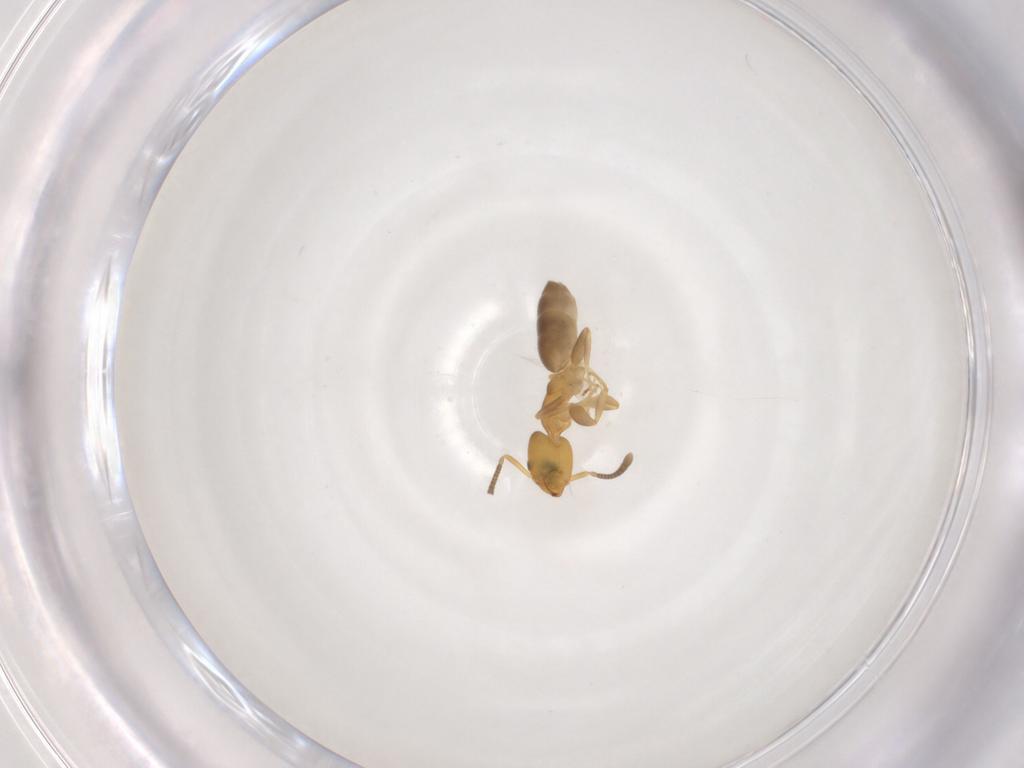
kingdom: Animalia
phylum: Arthropoda
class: Insecta
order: Hymenoptera
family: Formicidae
